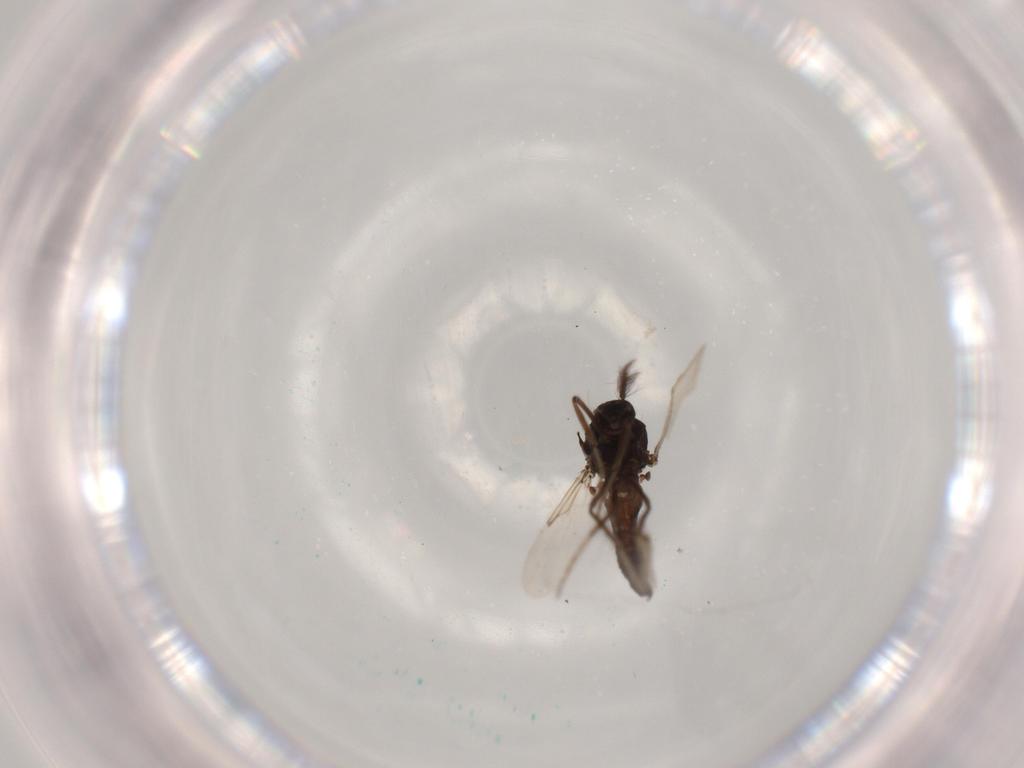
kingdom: Animalia
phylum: Arthropoda
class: Insecta
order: Diptera
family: Chironomidae
